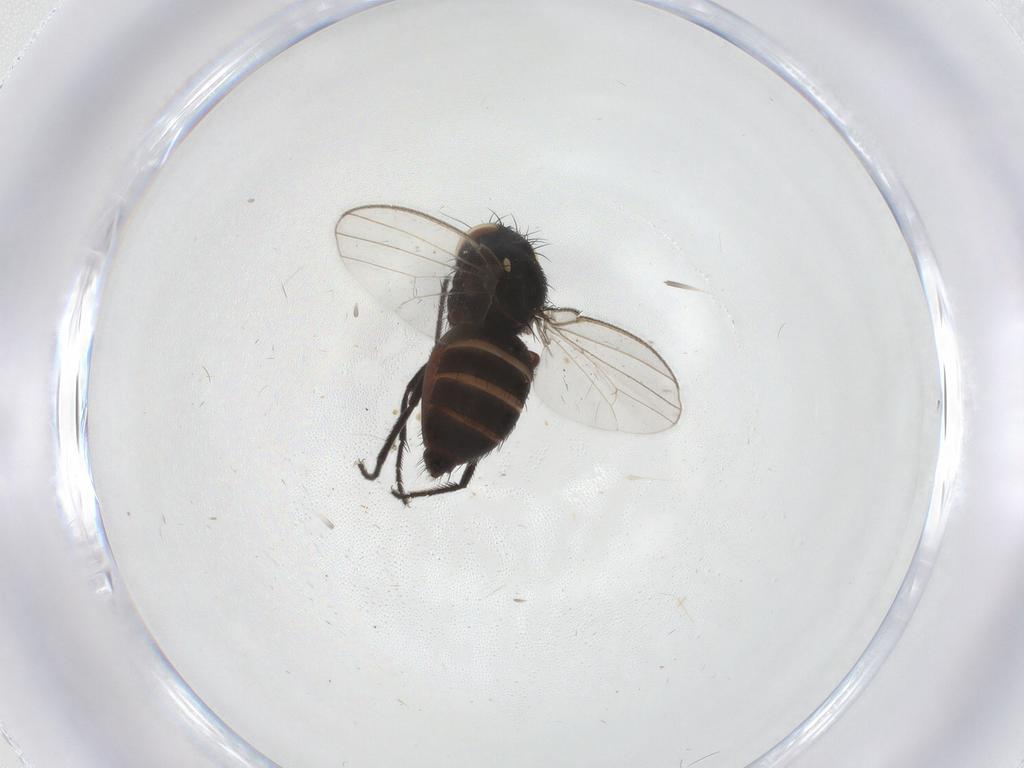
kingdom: Animalia
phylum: Arthropoda
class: Insecta
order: Diptera
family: Milichiidae
